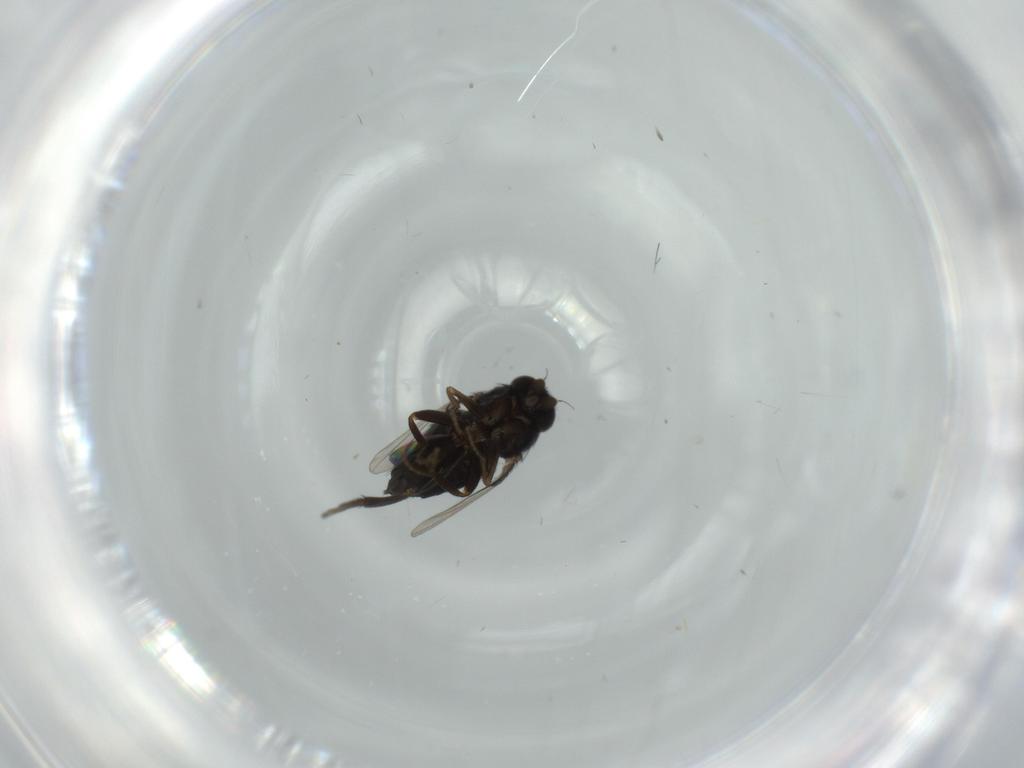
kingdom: Animalia
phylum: Arthropoda
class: Insecta
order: Diptera
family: Phoridae
